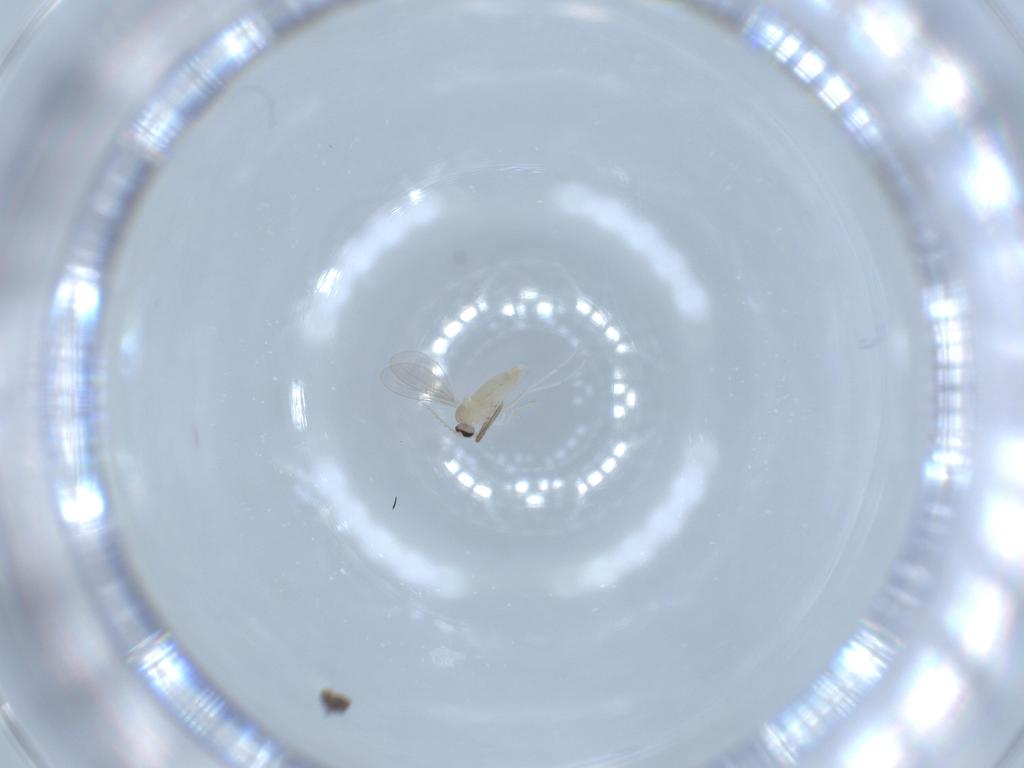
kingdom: Animalia
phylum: Arthropoda
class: Insecta
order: Diptera
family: Cecidomyiidae
